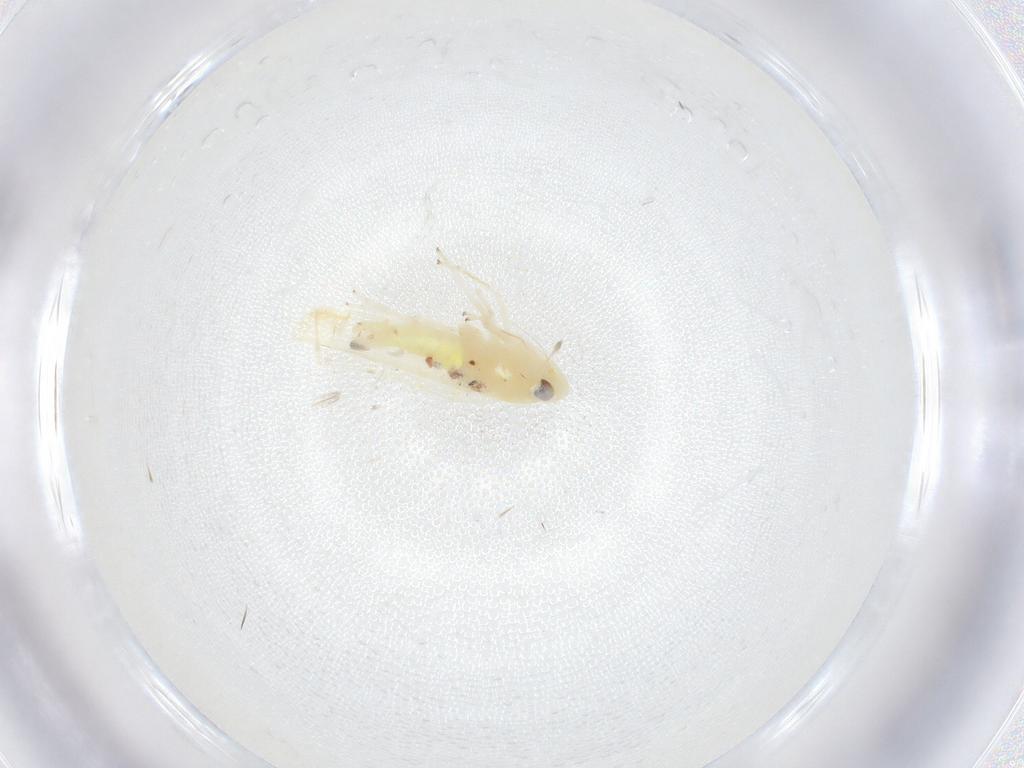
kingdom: Animalia
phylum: Arthropoda
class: Insecta
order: Hemiptera
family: Cicadellidae
